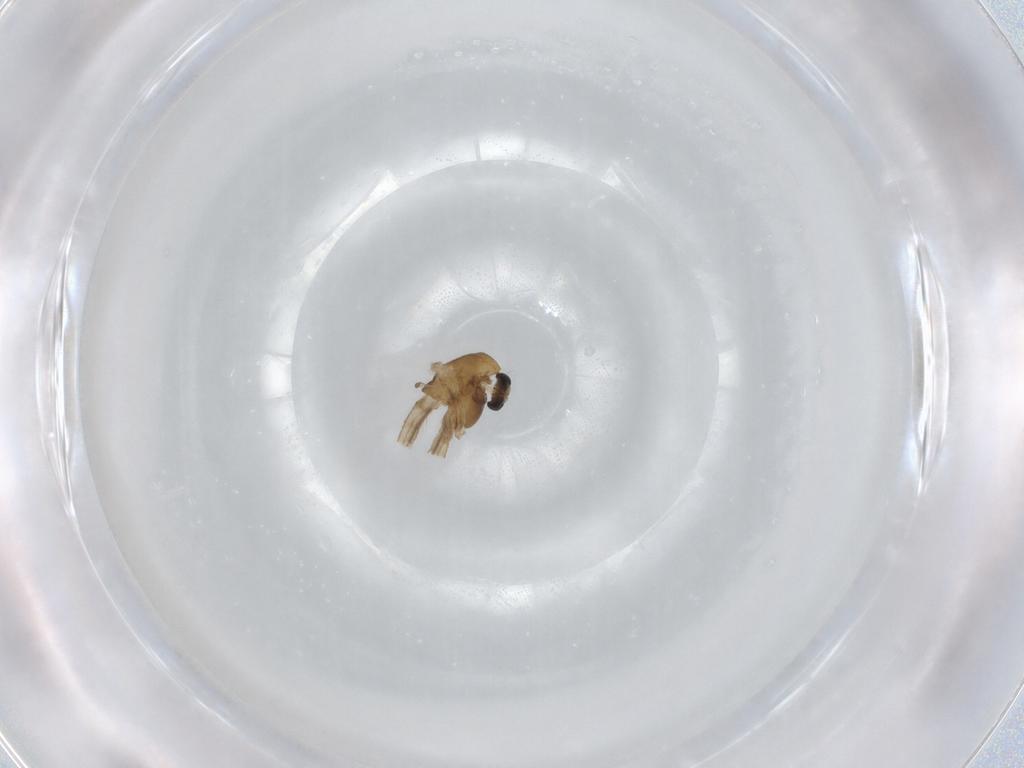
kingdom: Animalia
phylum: Arthropoda
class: Insecta
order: Diptera
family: Chironomidae
